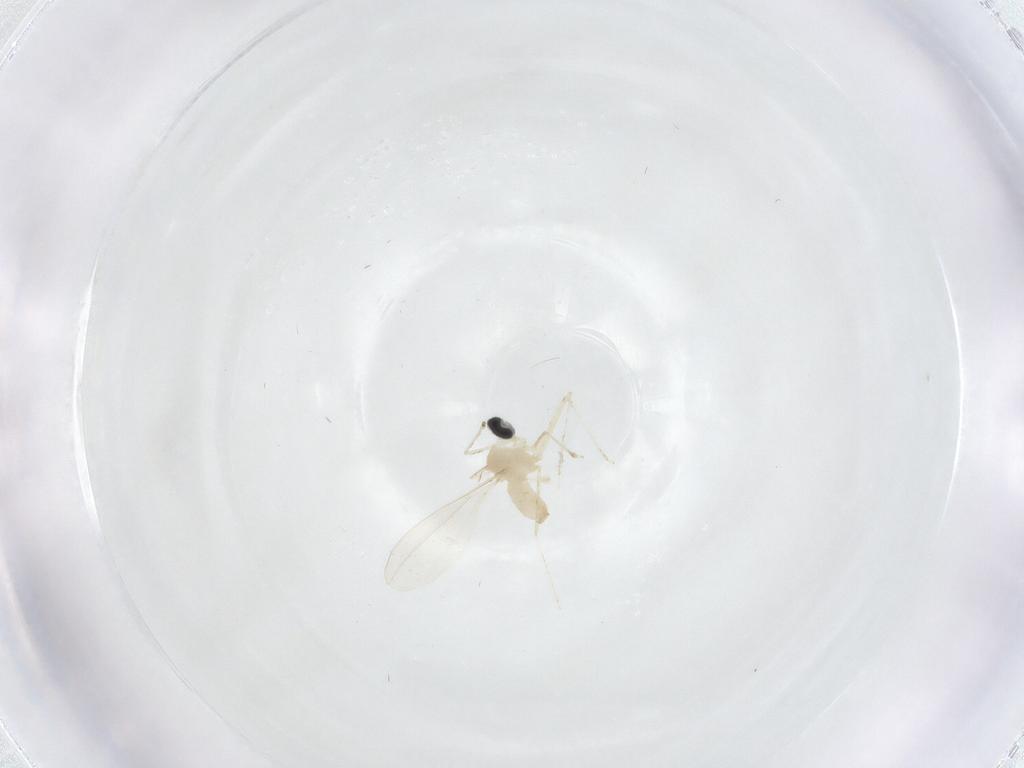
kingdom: Animalia
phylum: Arthropoda
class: Insecta
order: Diptera
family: Cecidomyiidae
